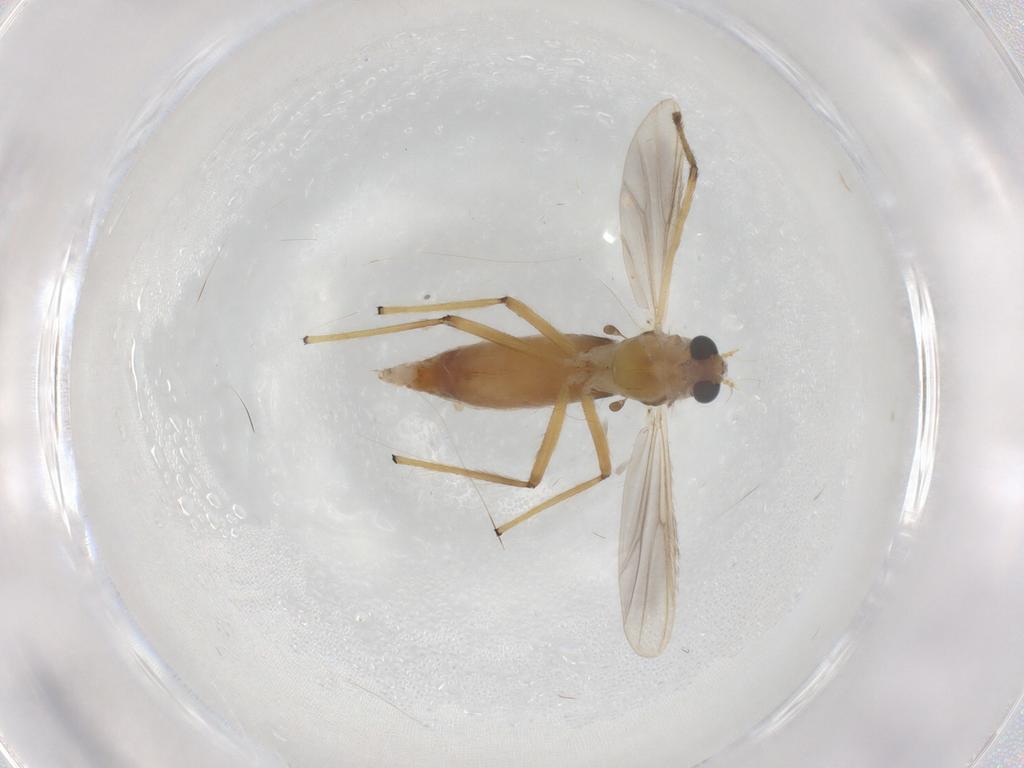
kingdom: Animalia
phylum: Arthropoda
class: Insecta
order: Diptera
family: Chironomidae
